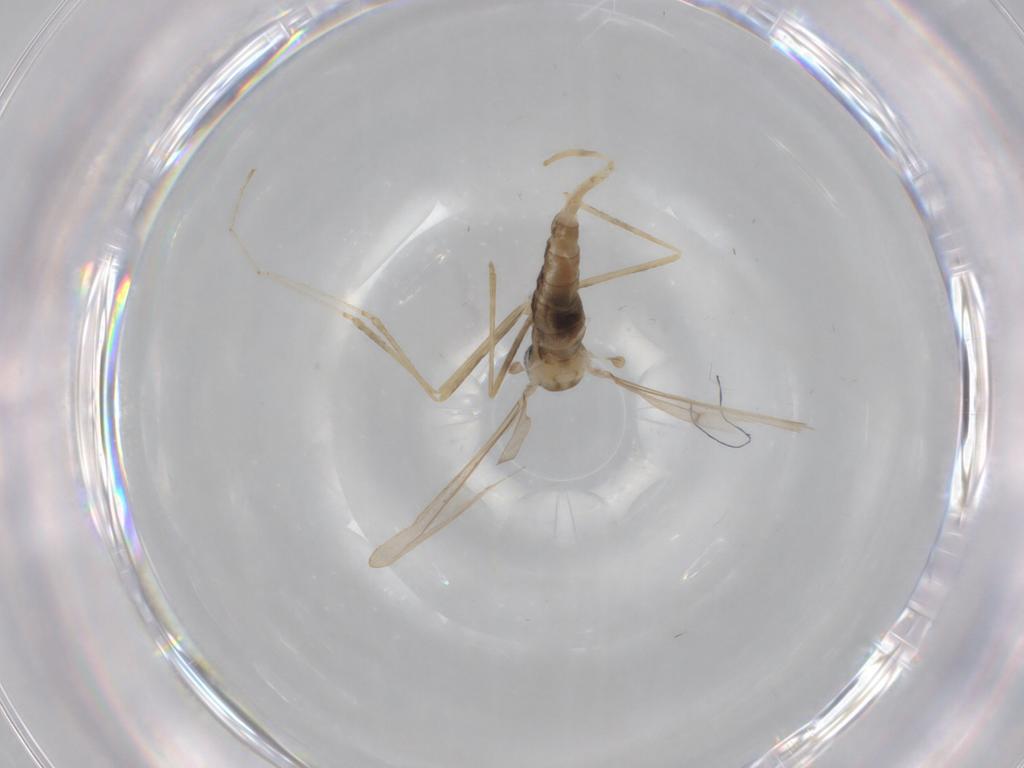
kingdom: Animalia
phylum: Arthropoda
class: Insecta
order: Diptera
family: Cecidomyiidae
